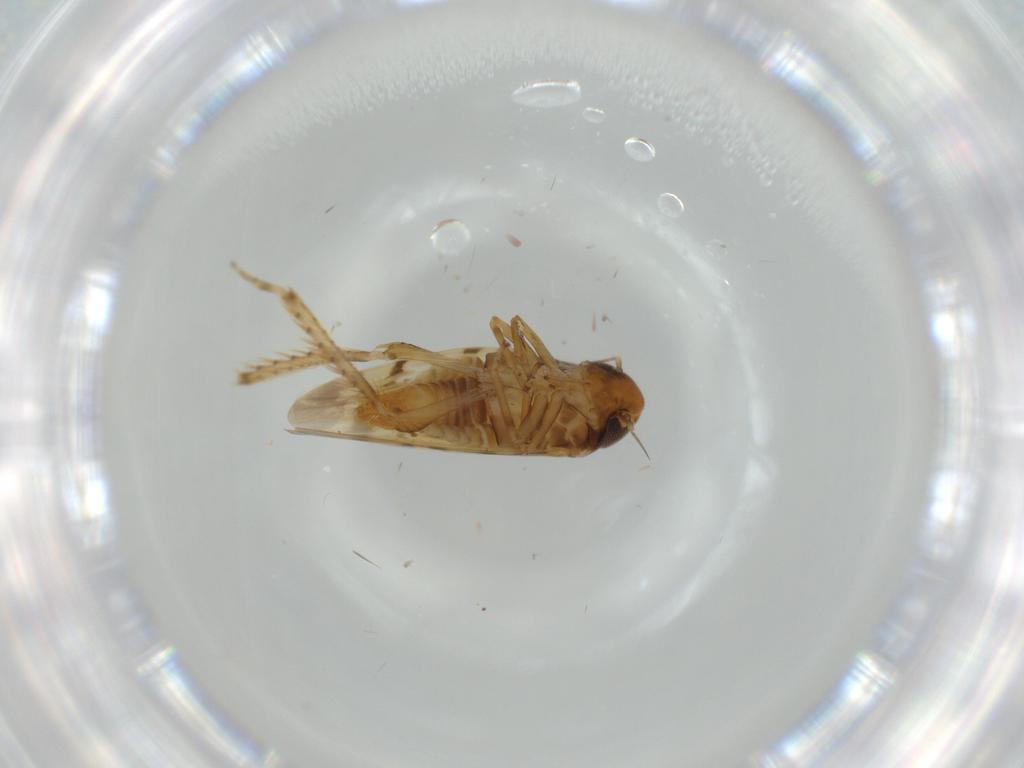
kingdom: Animalia
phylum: Arthropoda
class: Insecta
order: Hemiptera
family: Cicadellidae
